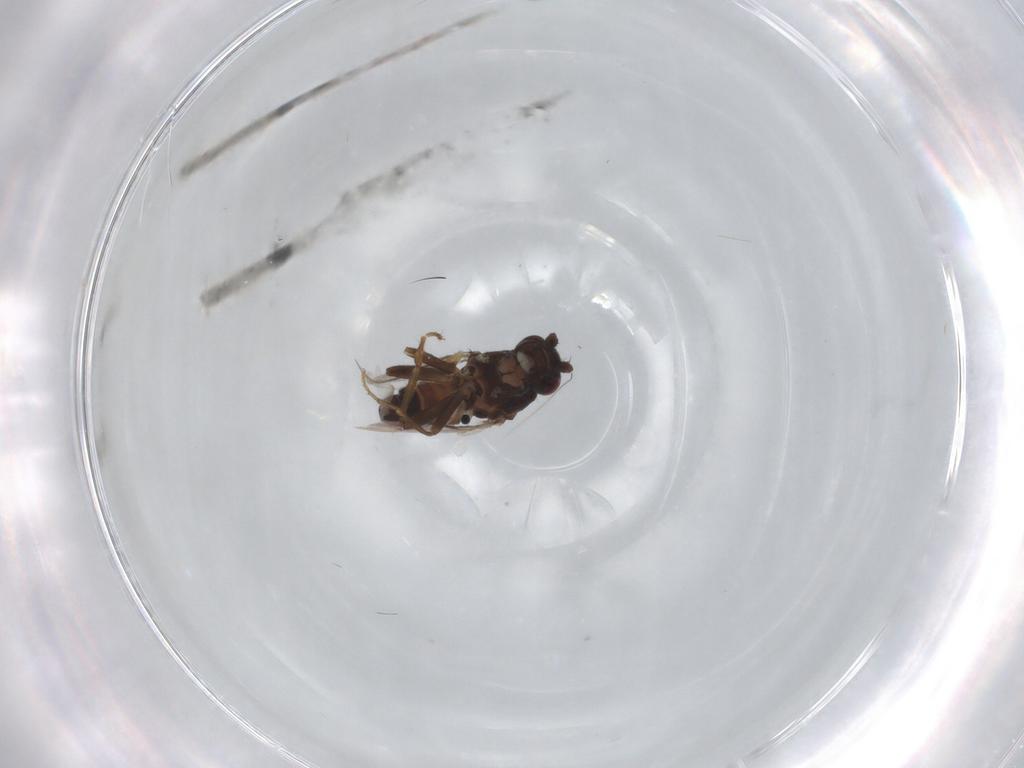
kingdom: Animalia
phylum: Arthropoda
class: Insecta
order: Diptera
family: Sphaeroceridae
